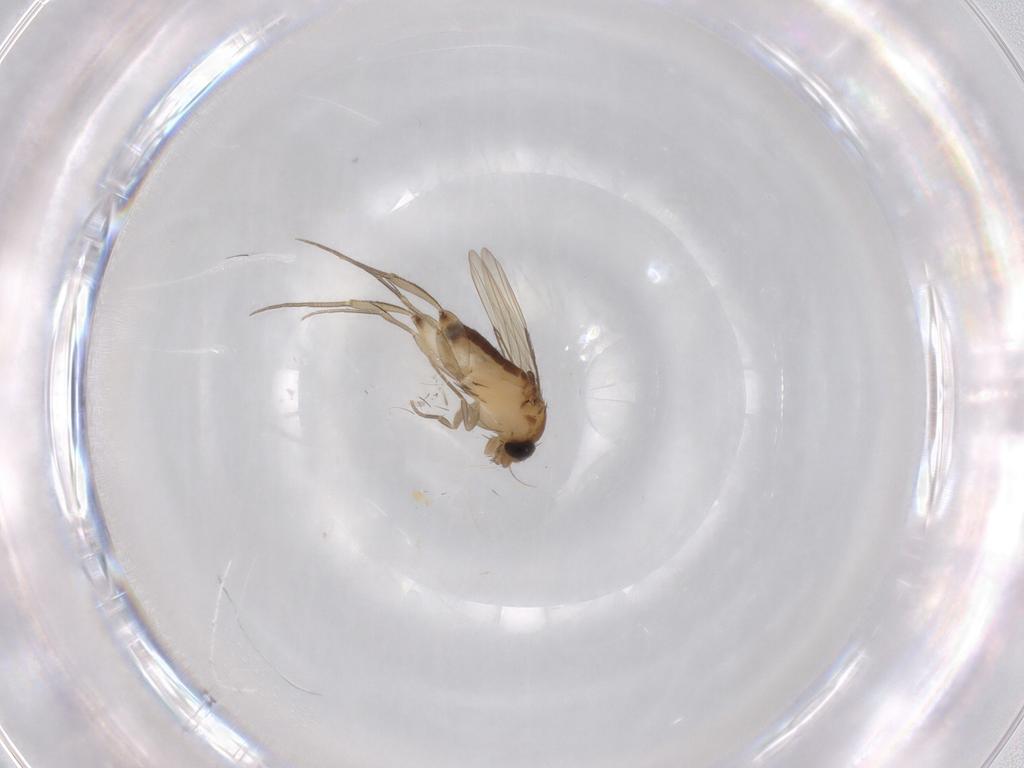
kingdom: Animalia
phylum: Arthropoda
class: Insecta
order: Diptera
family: Phoridae
